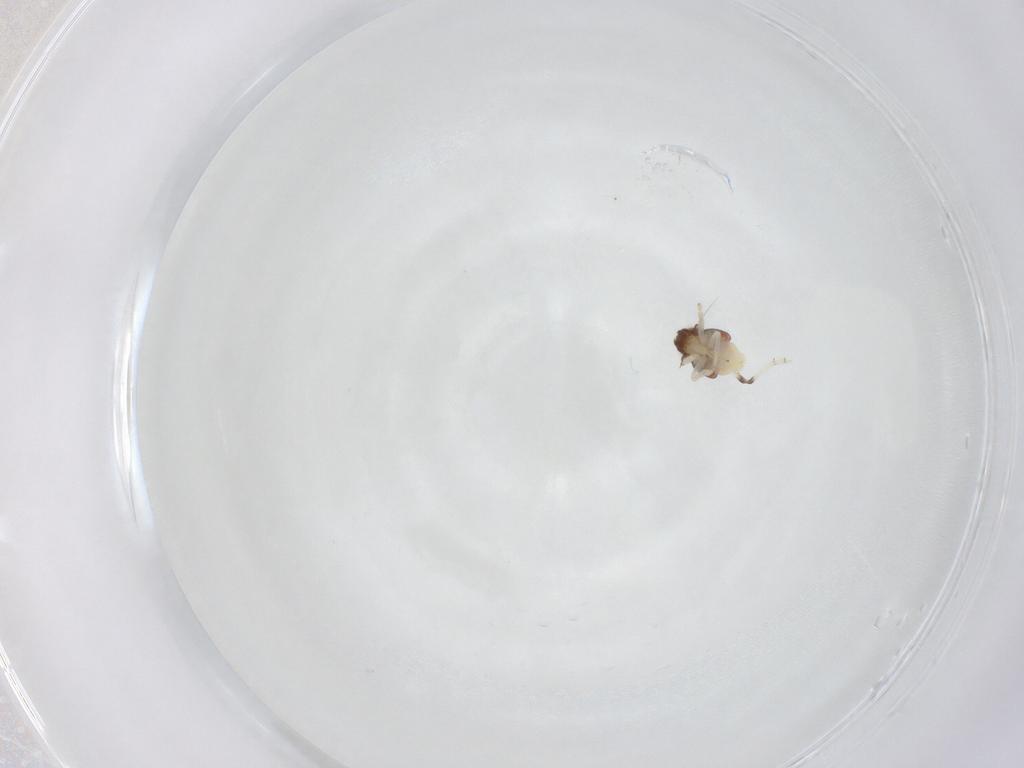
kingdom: Animalia
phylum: Arthropoda
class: Insecta
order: Hemiptera
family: Nogodinidae
